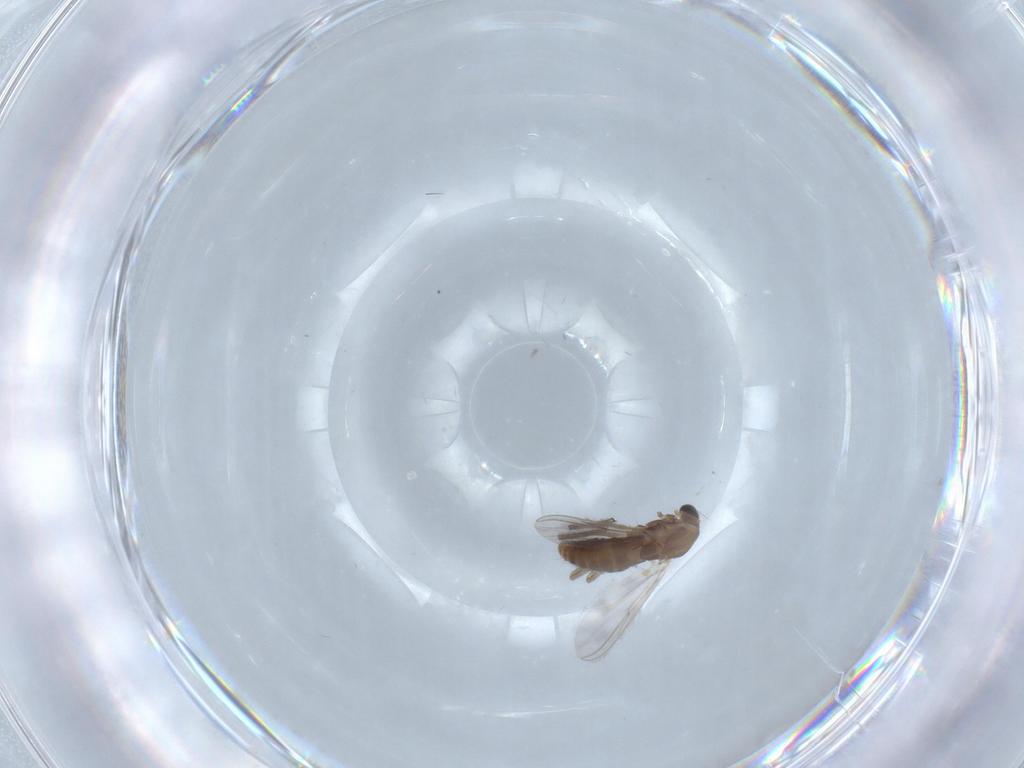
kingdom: Animalia
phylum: Arthropoda
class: Insecta
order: Diptera
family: Chironomidae
